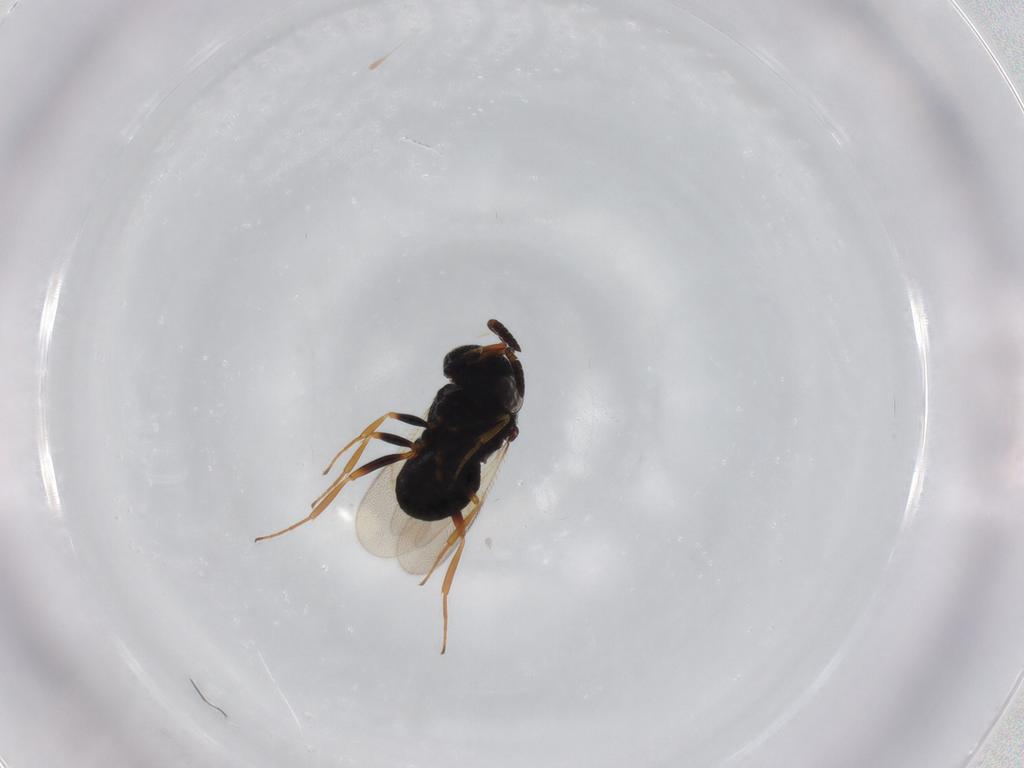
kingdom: Animalia
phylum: Arthropoda
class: Insecta
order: Hymenoptera
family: Scelionidae
